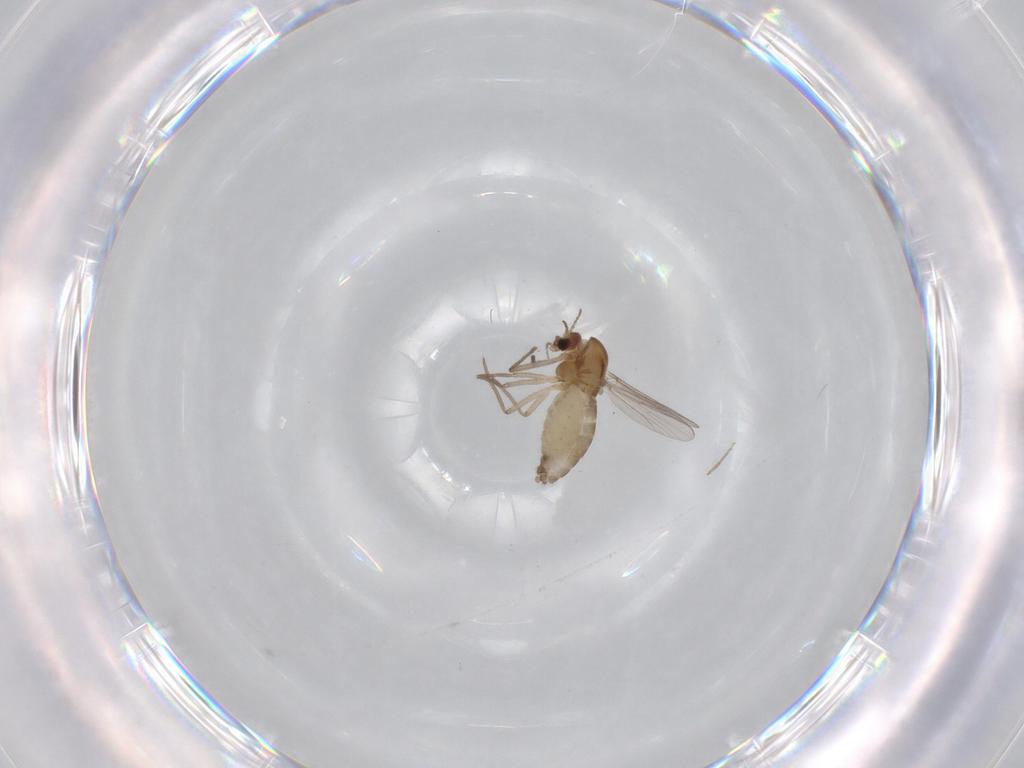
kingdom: Animalia
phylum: Arthropoda
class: Insecta
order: Diptera
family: Chironomidae
